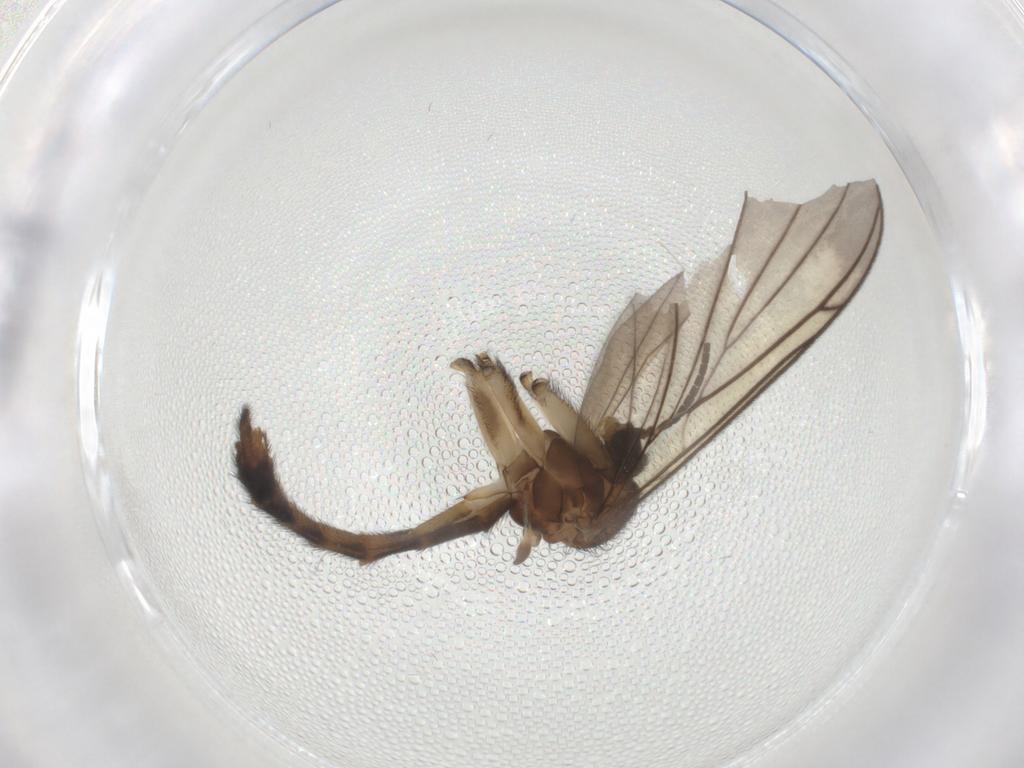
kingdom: Animalia
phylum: Arthropoda
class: Insecta
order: Diptera
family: Keroplatidae
